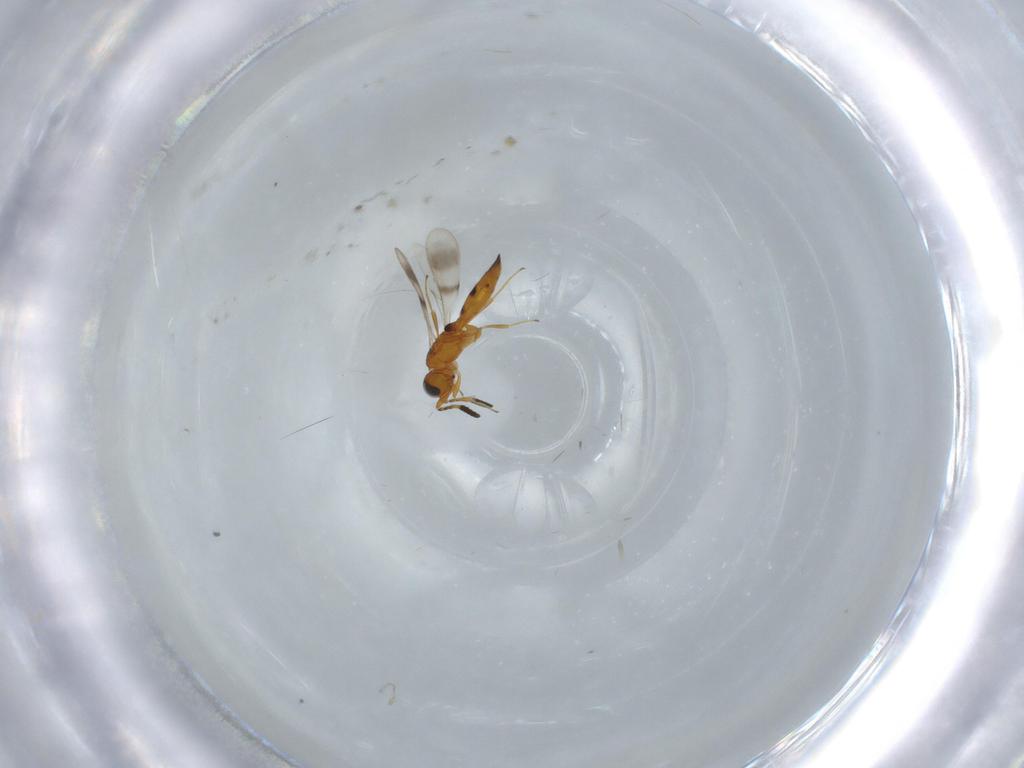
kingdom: Animalia
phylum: Arthropoda
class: Insecta
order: Hymenoptera
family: Scelionidae
